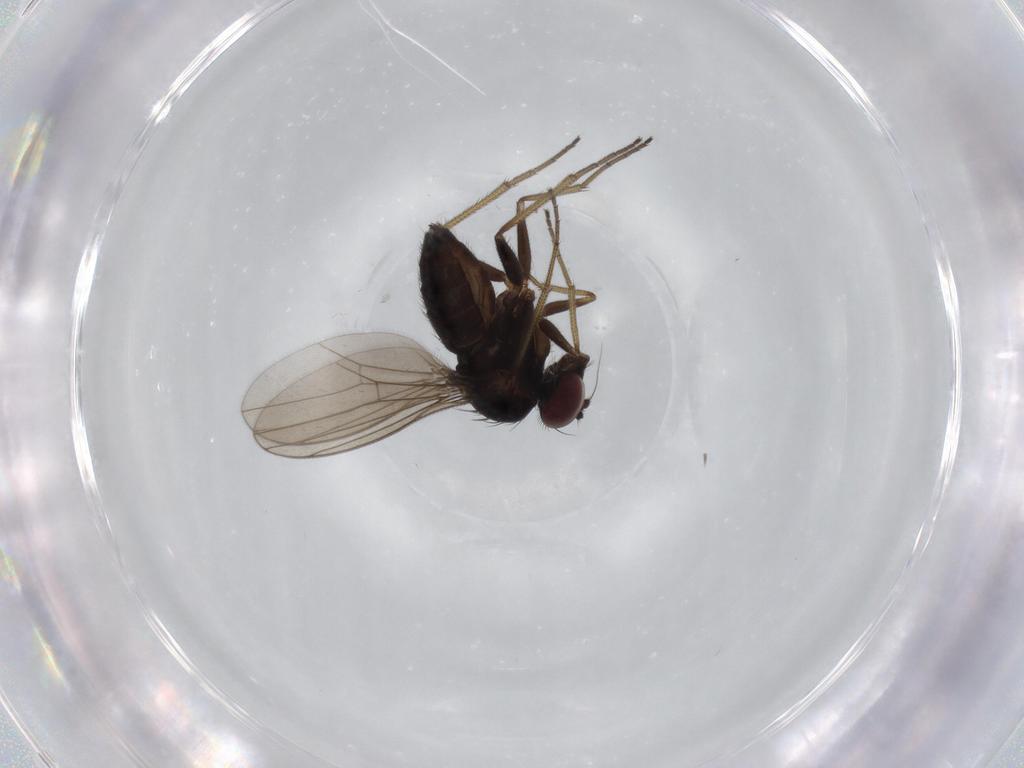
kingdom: Animalia
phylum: Arthropoda
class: Insecta
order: Diptera
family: Dolichopodidae
